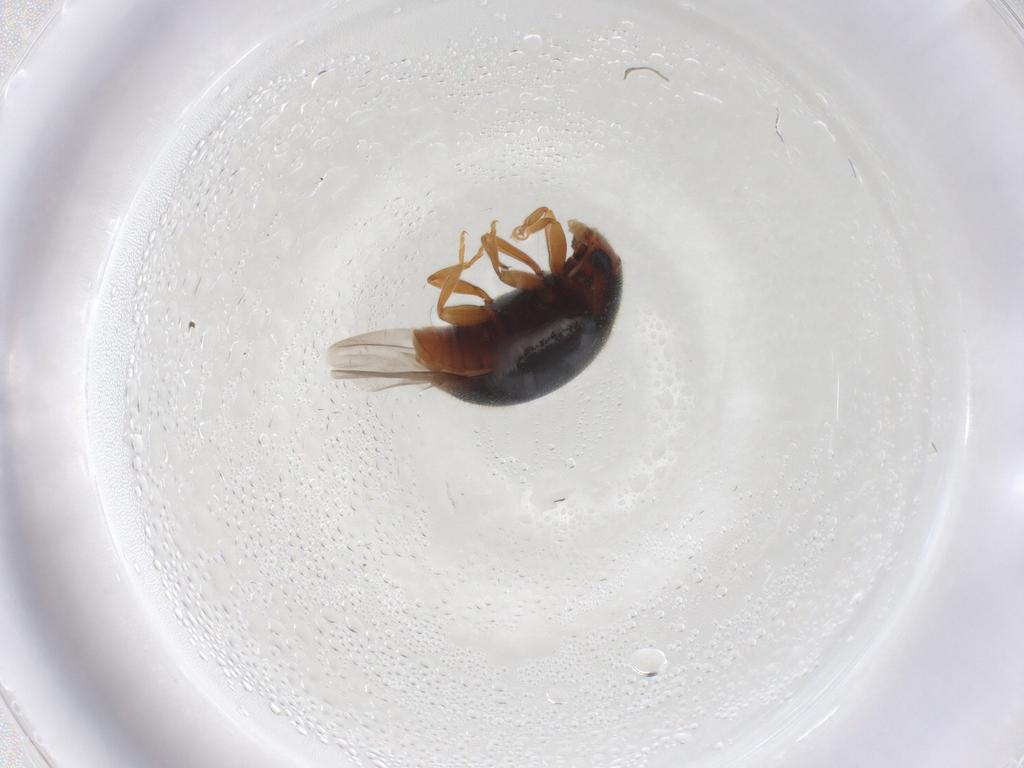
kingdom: Animalia
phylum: Arthropoda
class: Insecta
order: Coleoptera
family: Chrysomelidae
